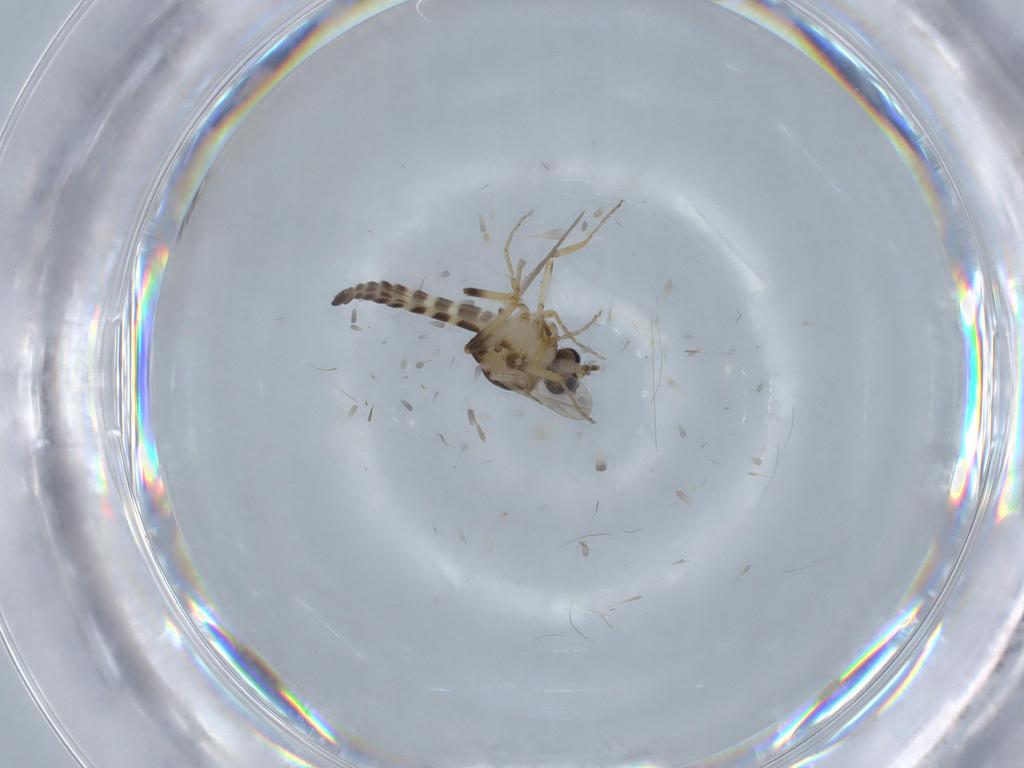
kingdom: Animalia
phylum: Arthropoda
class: Insecta
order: Diptera
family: Ceratopogonidae
